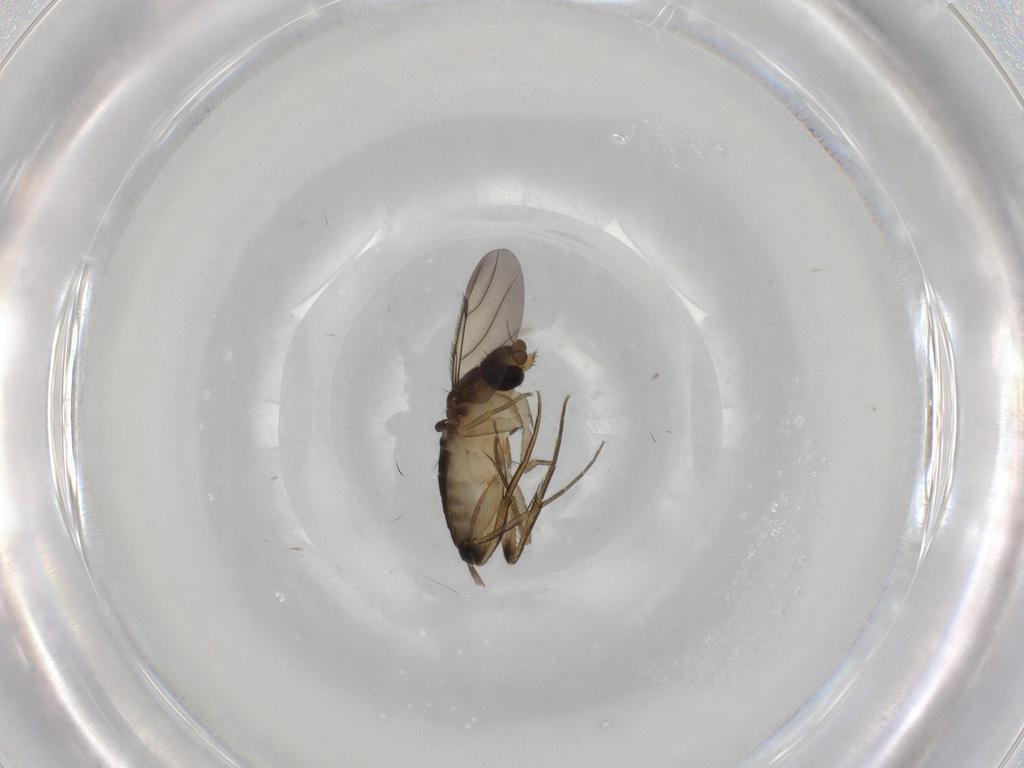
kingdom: Animalia
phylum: Arthropoda
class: Insecta
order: Diptera
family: Sciaridae
